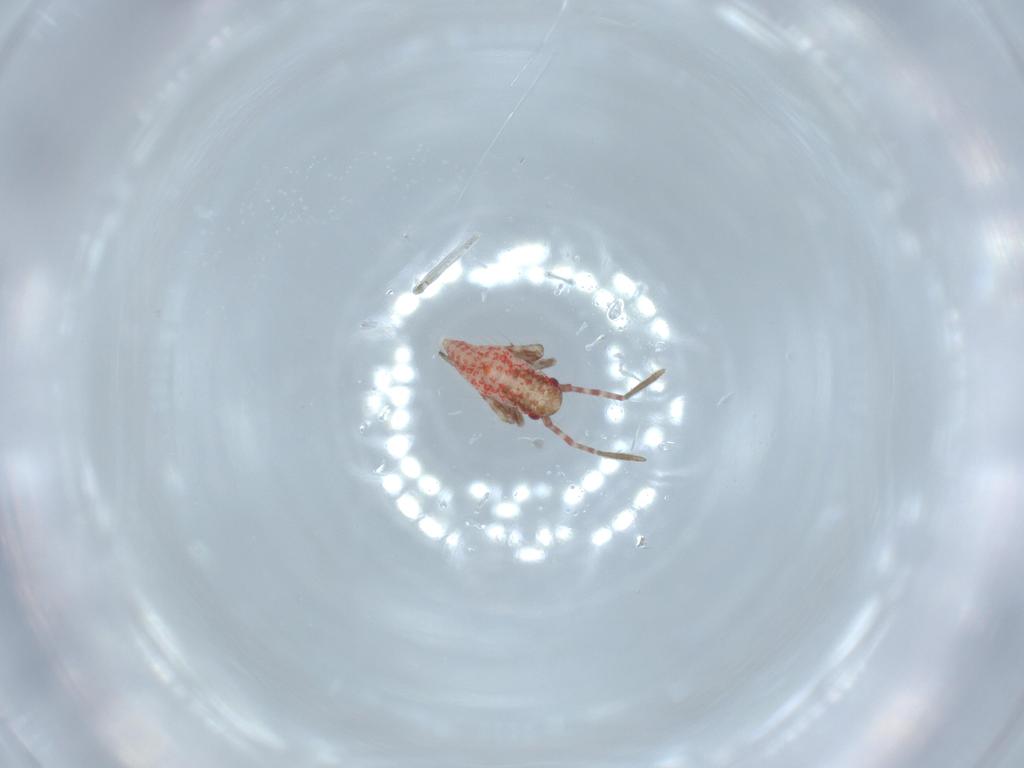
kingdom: Animalia
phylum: Arthropoda
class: Insecta
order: Hemiptera
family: Miridae
